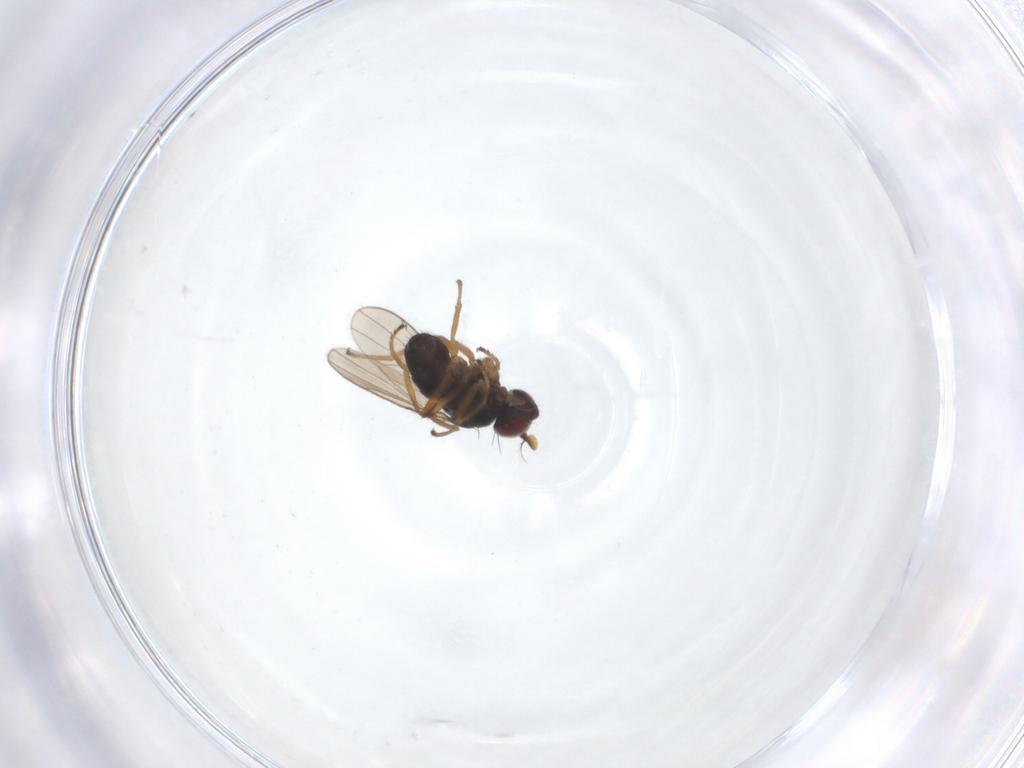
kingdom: Animalia
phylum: Arthropoda
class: Insecta
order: Diptera
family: Ephydridae
